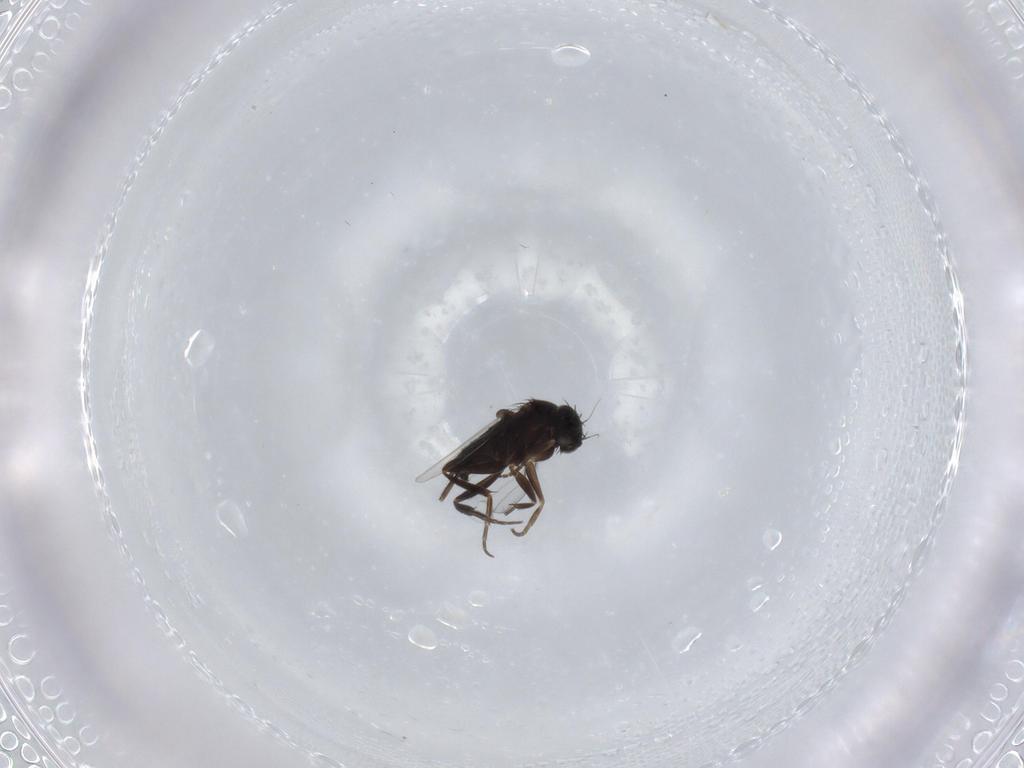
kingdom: Animalia
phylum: Arthropoda
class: Insecta
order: Diptera
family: Phoridae
